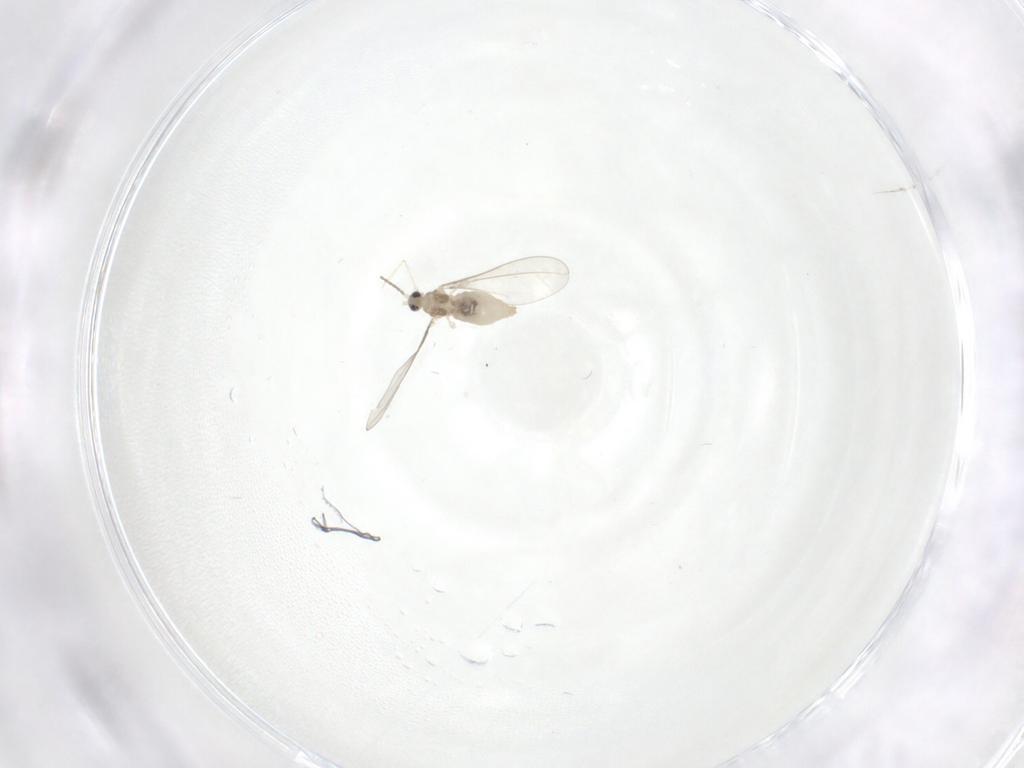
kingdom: Animalia
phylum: Arthropoda
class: Insecta
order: Diptera
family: Cecidomyiidae
